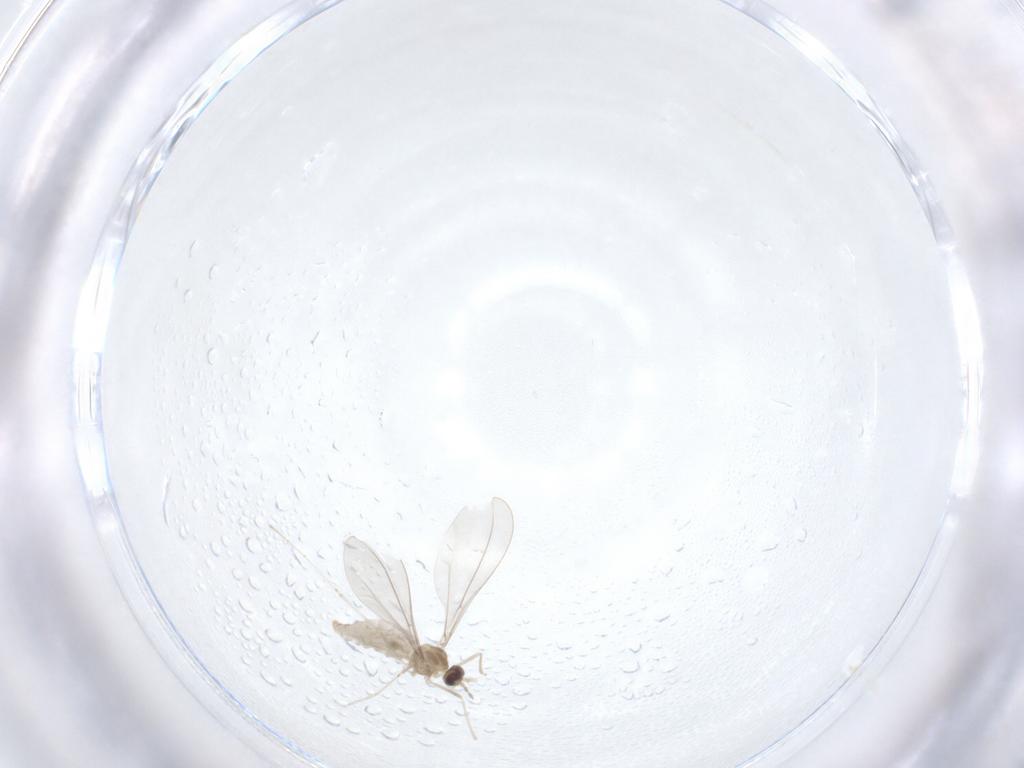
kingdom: Animalia
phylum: Arthropoda
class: Insecta
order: Diptera
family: Cecidomyiidae
